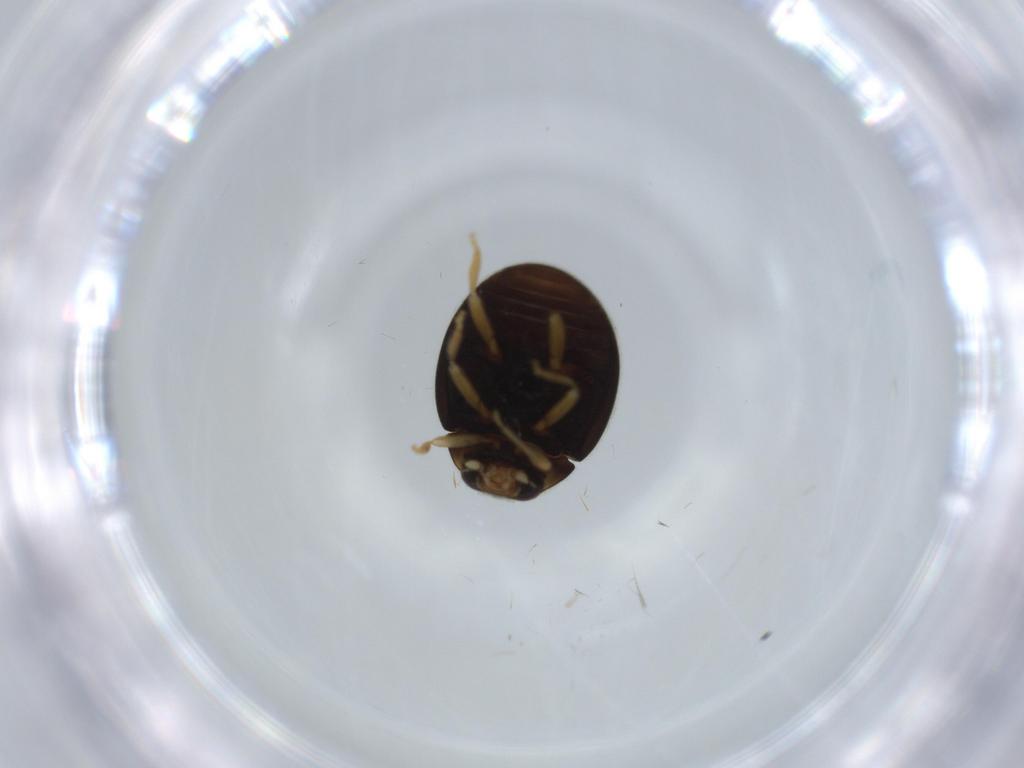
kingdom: Animalia
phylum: Arthropoda
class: Insecta
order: Coleoptera
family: Coccinellidae
